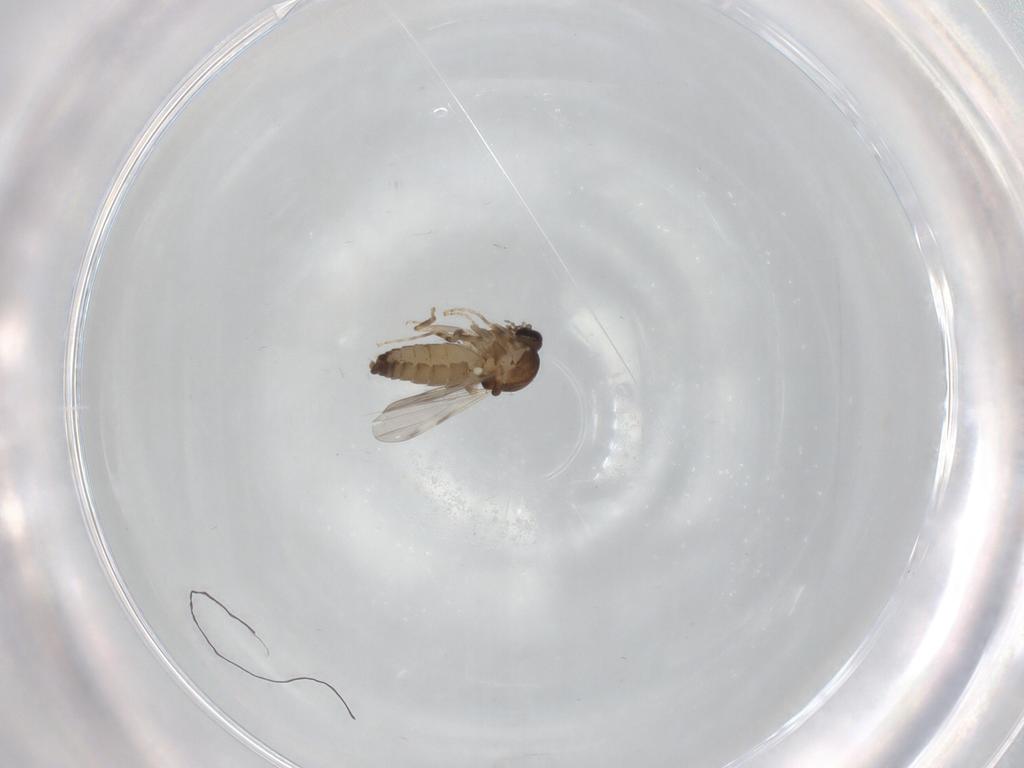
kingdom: Animalia
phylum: Arthropoda
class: Insecta
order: Diptera
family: Ceratopogonidae
